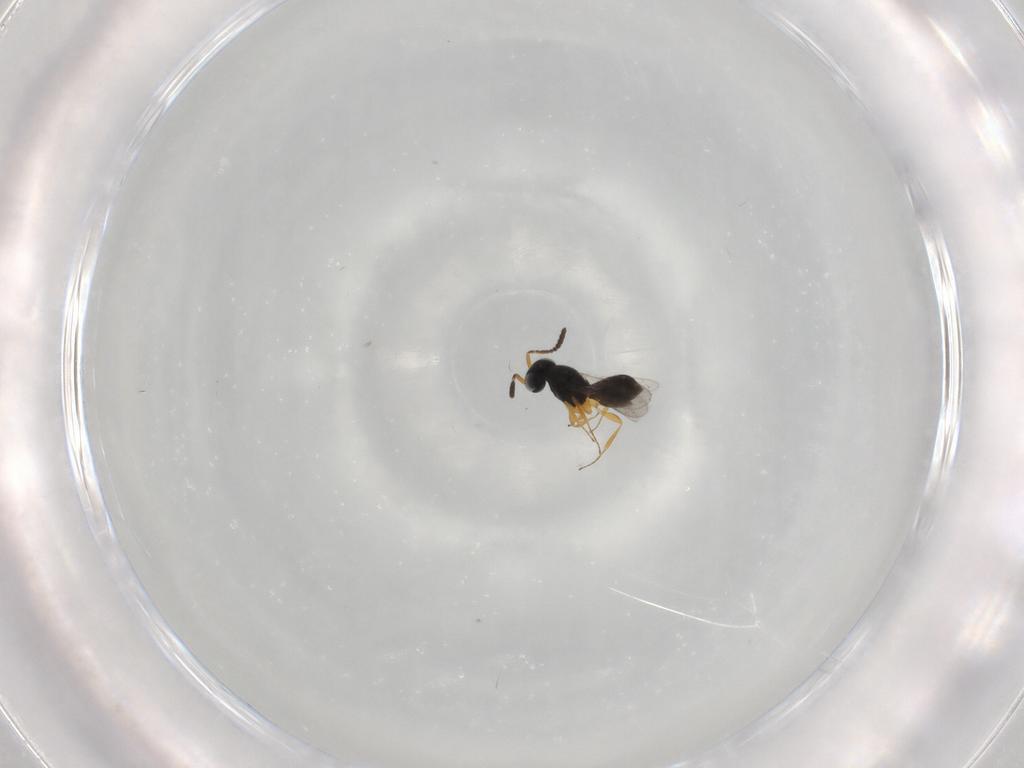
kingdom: Animalia
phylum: Arthropoda
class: Insecta
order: Hymenoptera
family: Scelionidae
